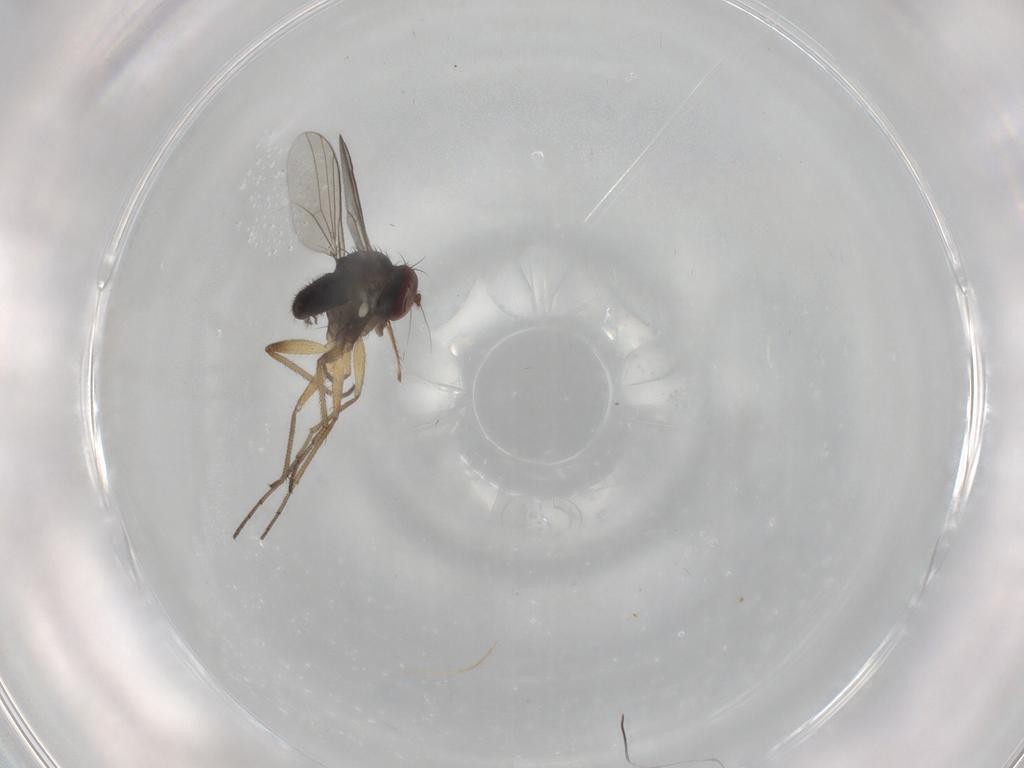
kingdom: Animalia
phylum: Arthropoda
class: Insecta
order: Diptera
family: Dolichopodidae
